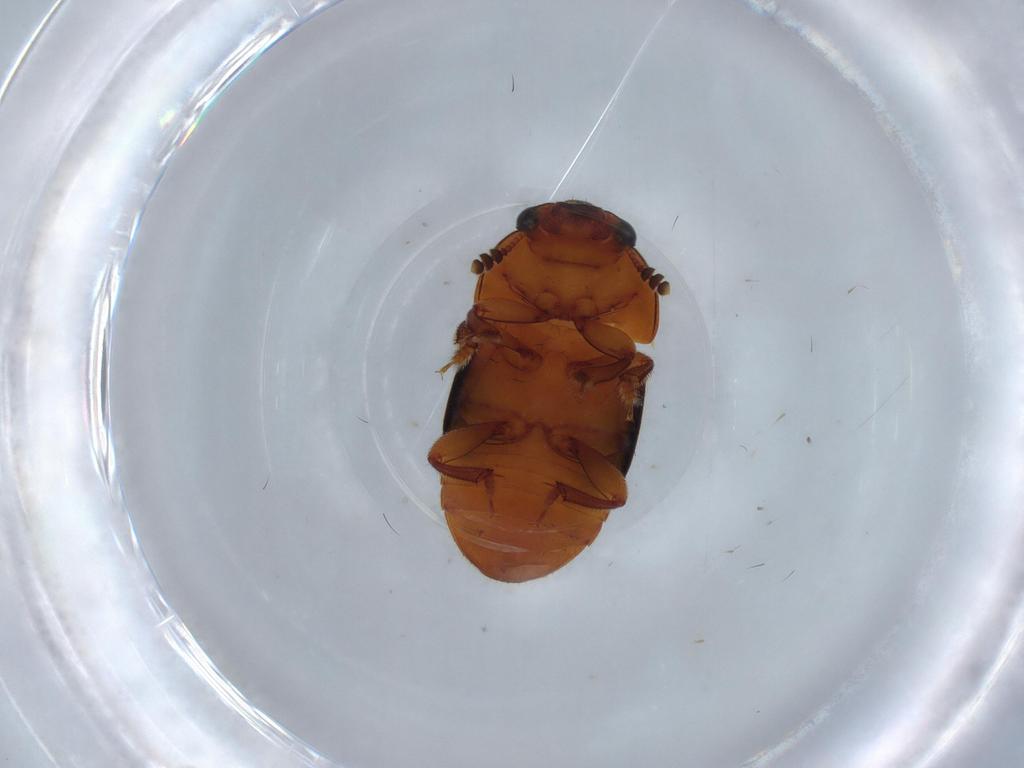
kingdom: Animalia
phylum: Arthropoda
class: Insecta
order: Coleoptera
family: Nitidulidae
